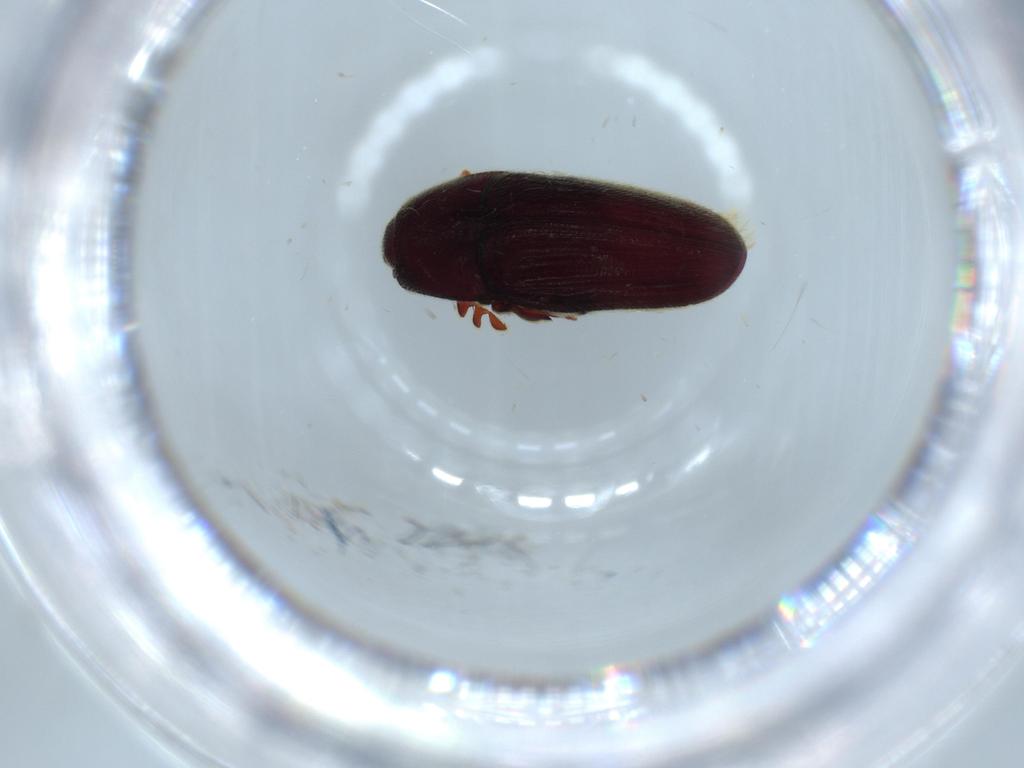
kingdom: Animalia
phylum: Arthropoda
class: Insecta
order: Coleoptera
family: Throscidae
